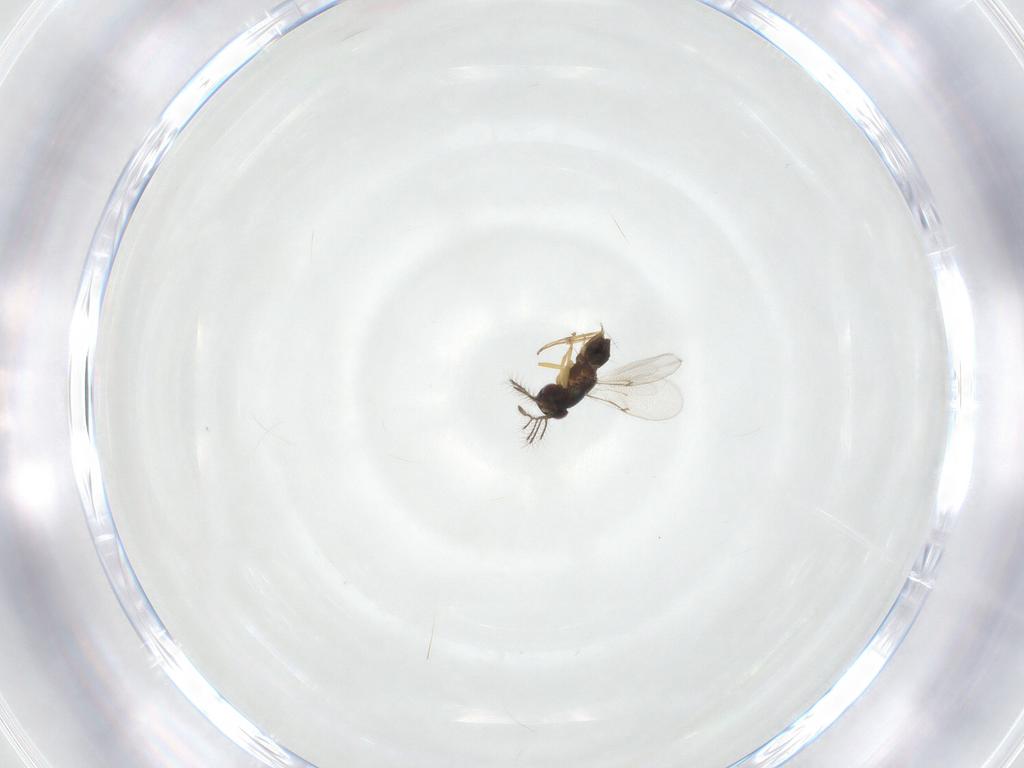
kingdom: Animalia
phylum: Arthropoda
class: Insecta
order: Hymenoptera
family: Encyrtidae
